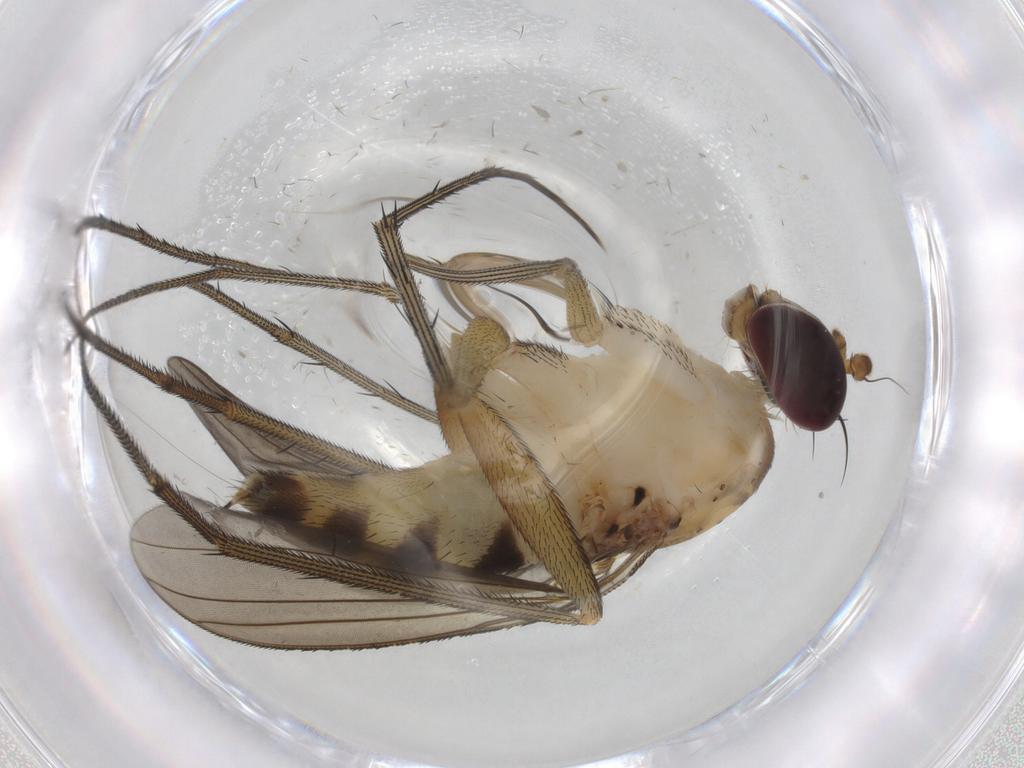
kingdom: Animalia
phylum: Arthropoda
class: Insecta
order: Diptera
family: Dolichopodidae
